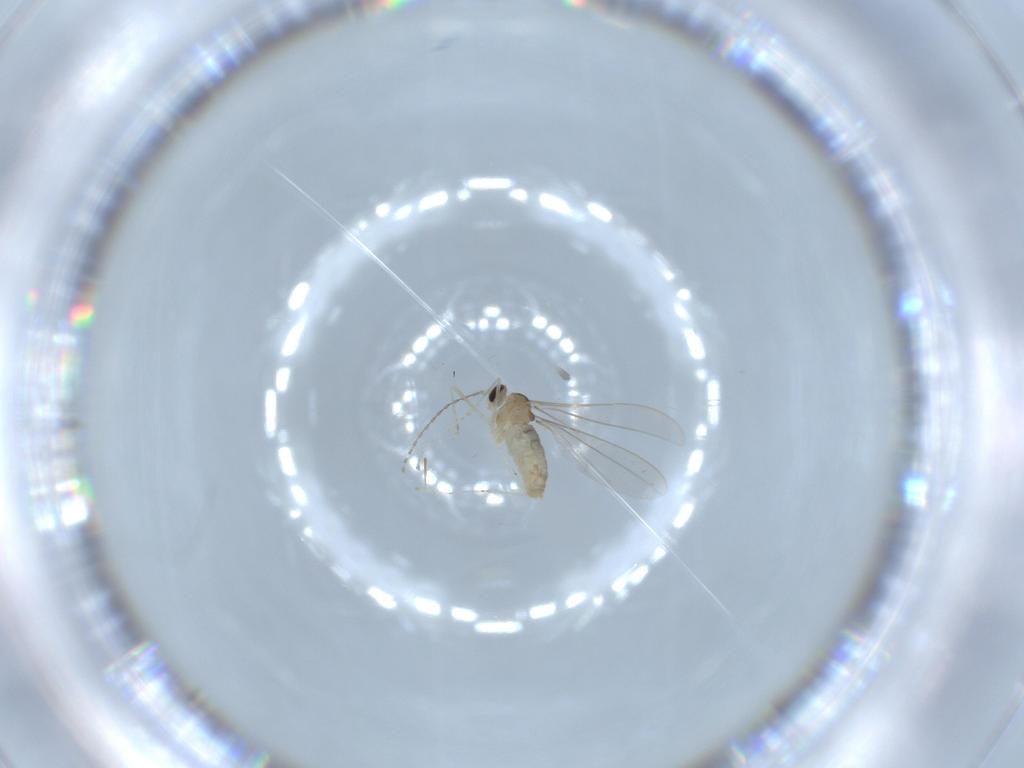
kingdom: Animalia
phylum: Arthropoda
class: Insecta
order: Diptera
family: Cecidomyiidae
